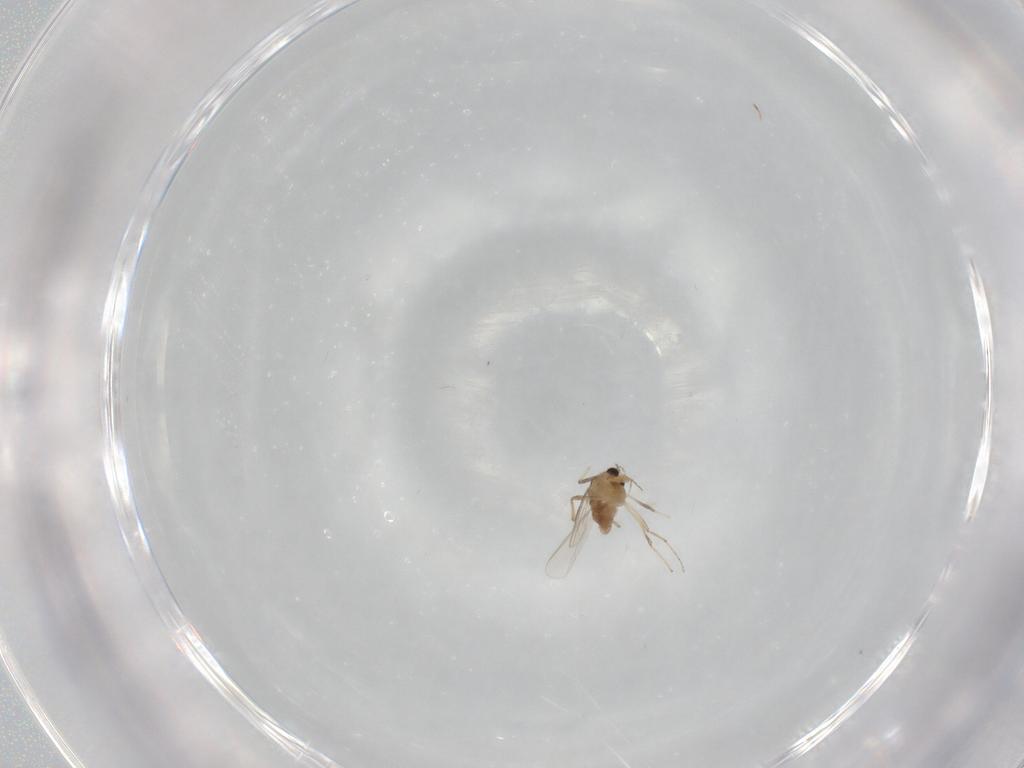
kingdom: Animalia
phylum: Arthropoda
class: Insecta
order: Diptera
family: Chironomidae
